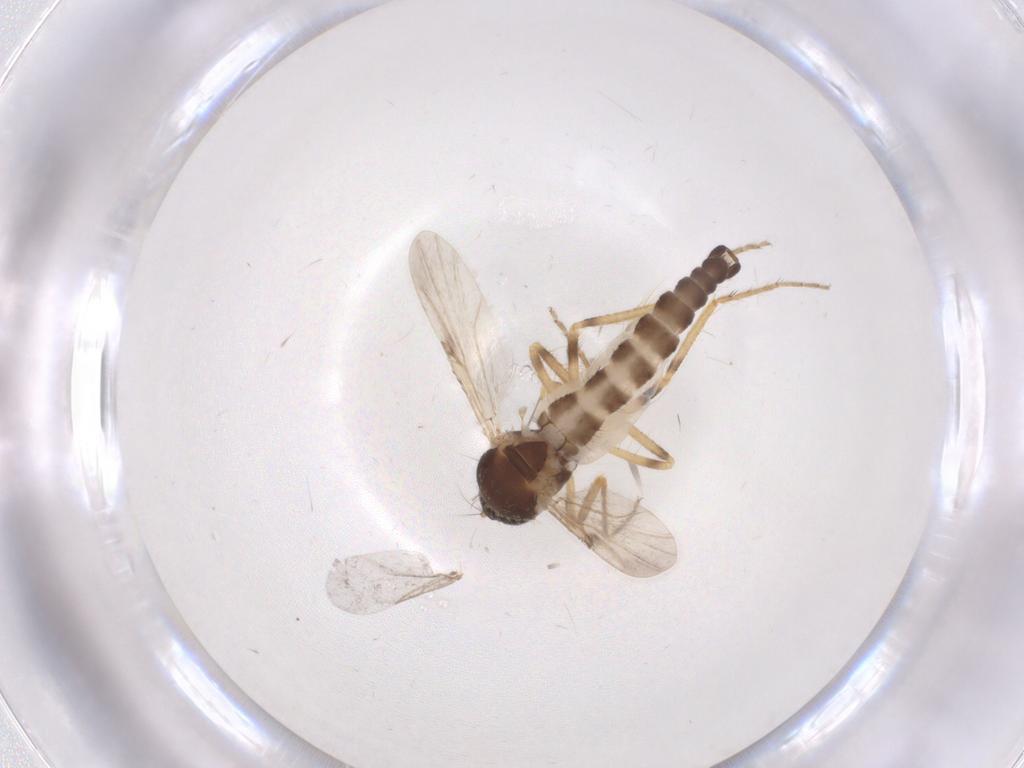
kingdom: Animalia
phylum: Arthropoda
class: Insecta
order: Diptera
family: Ceratopogonidae
